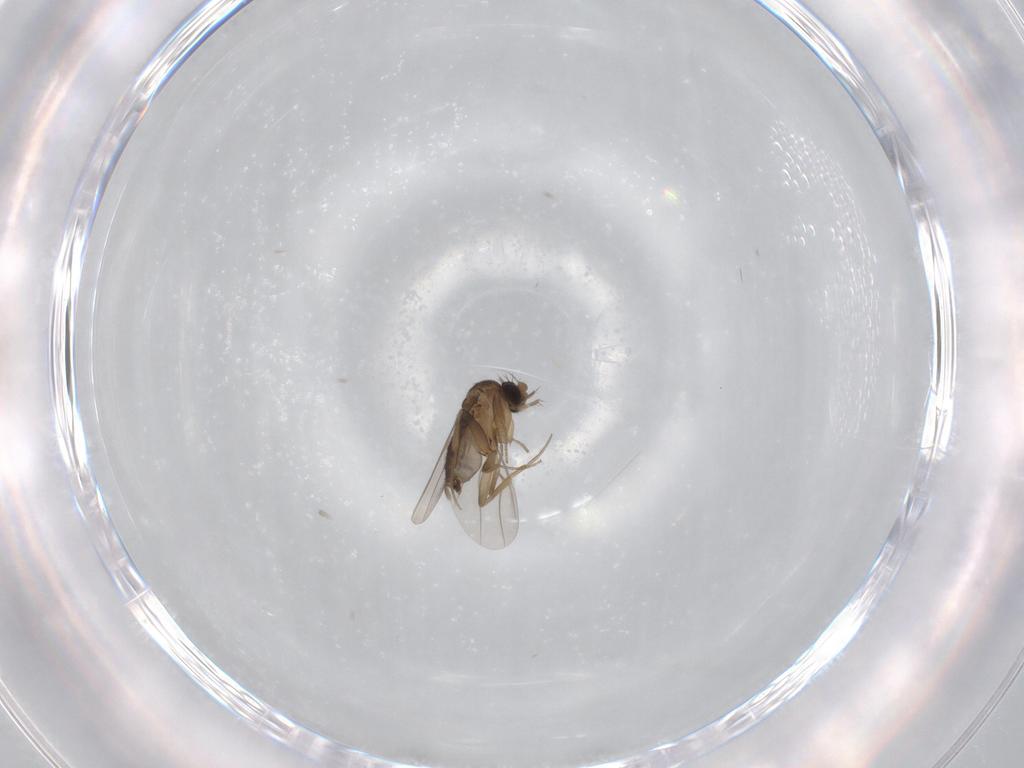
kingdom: Animalia
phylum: Arthropoda
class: Insecta
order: Diptera
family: Phoridae
